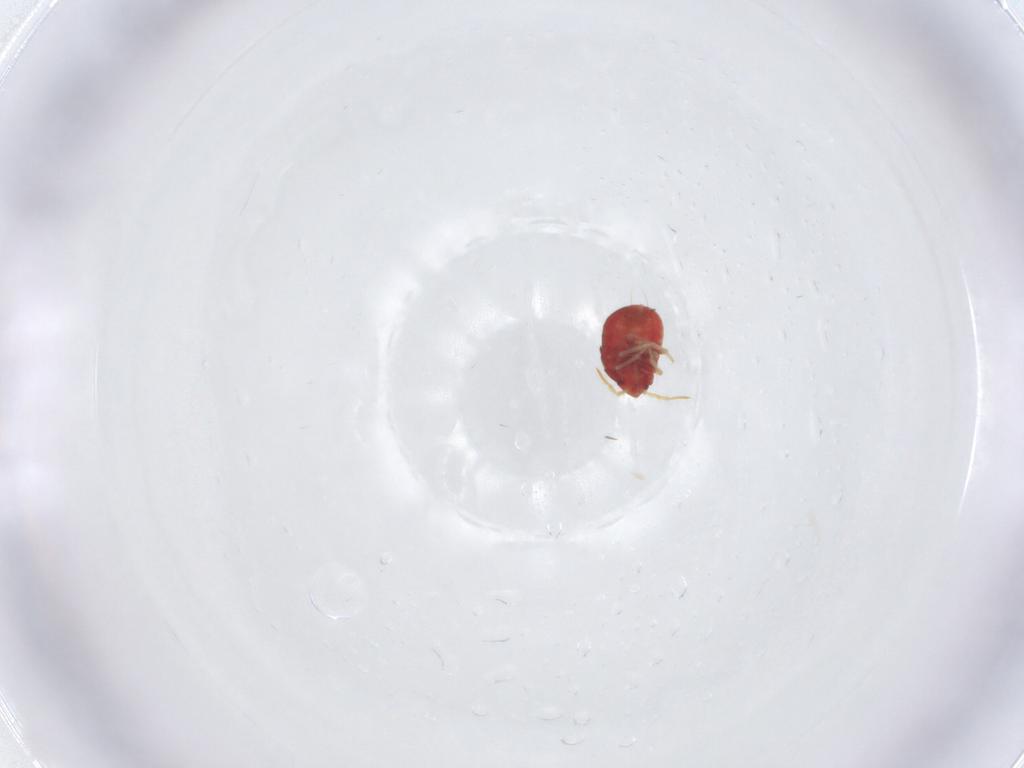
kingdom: Animalia
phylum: Arthropoda
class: Insecta
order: Hemiptera
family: Anthocoridae
